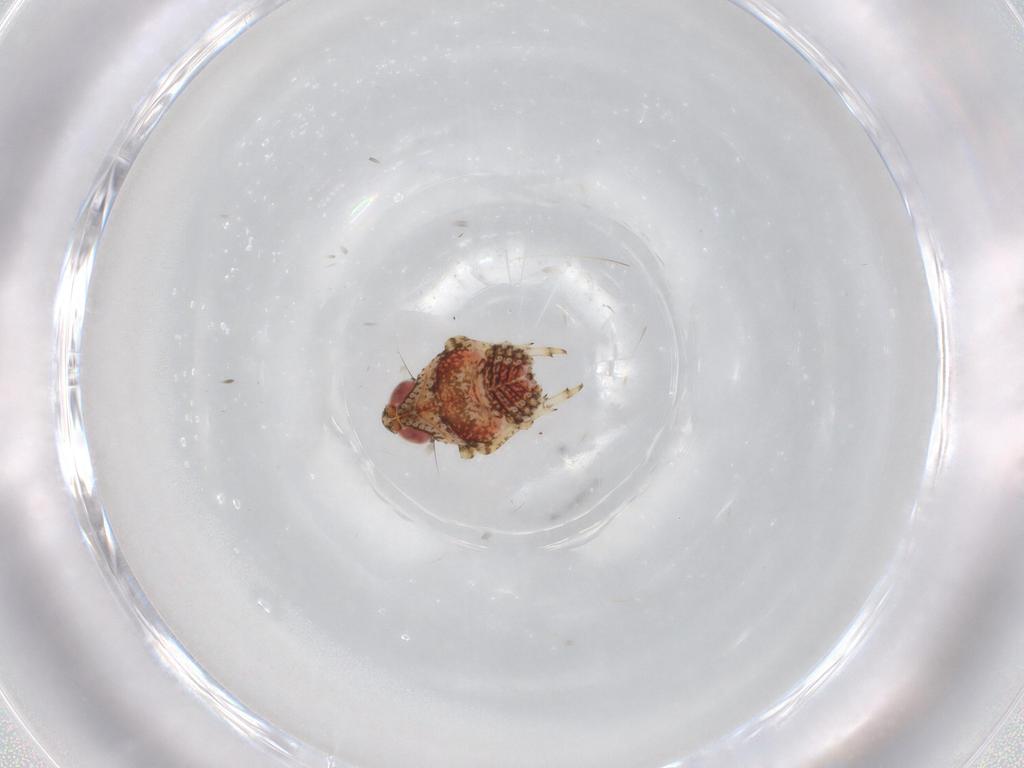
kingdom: Animalia
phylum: Arthropoda
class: Insecta
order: Hemiptera
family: Issidae
